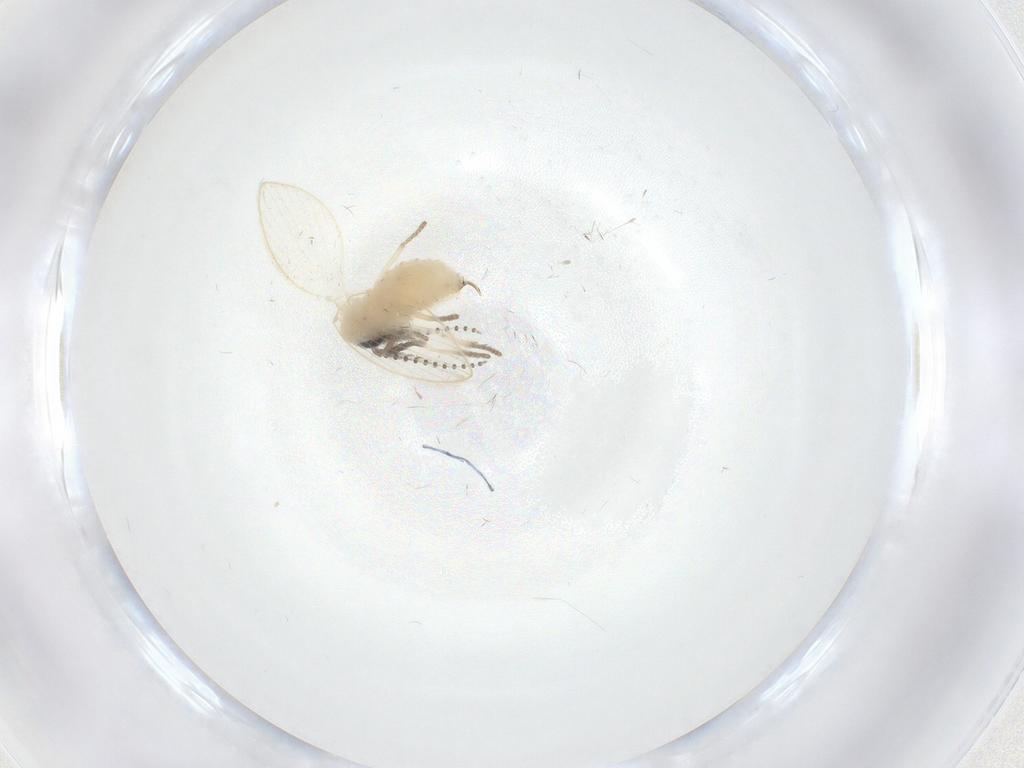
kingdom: Animalia
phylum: Arthropoda
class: Insecta
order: Diptera
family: Psychodidae
